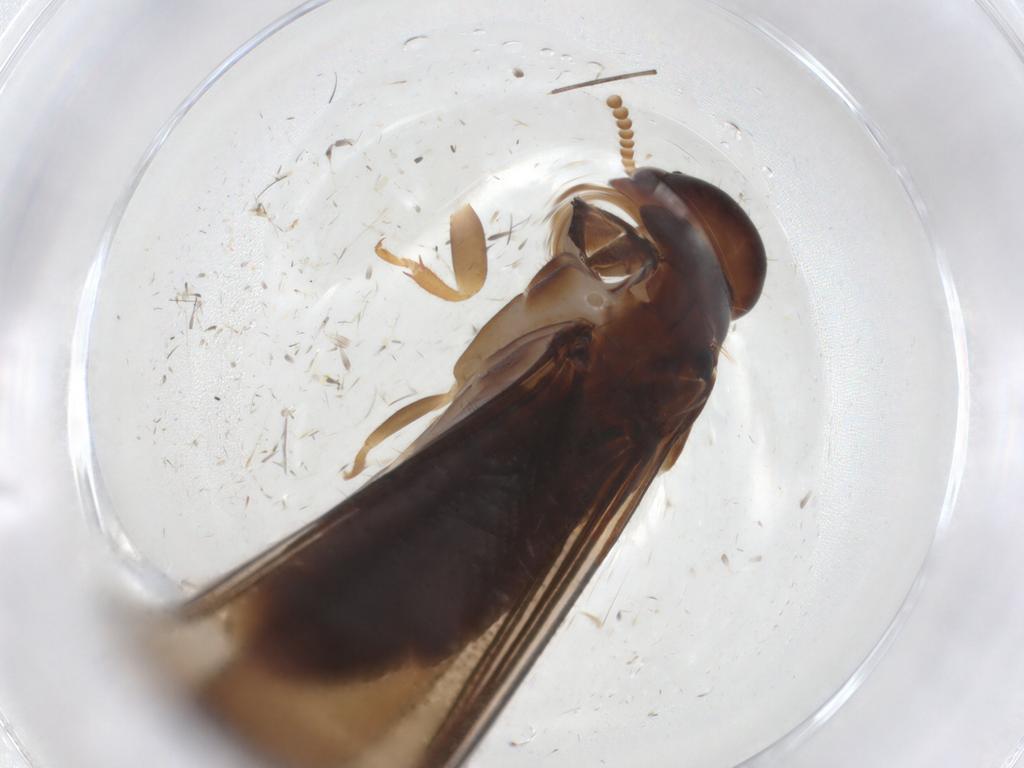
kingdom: Animalia
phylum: Arthropoda
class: Insecta
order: Blattodea
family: Kalotermitidae
